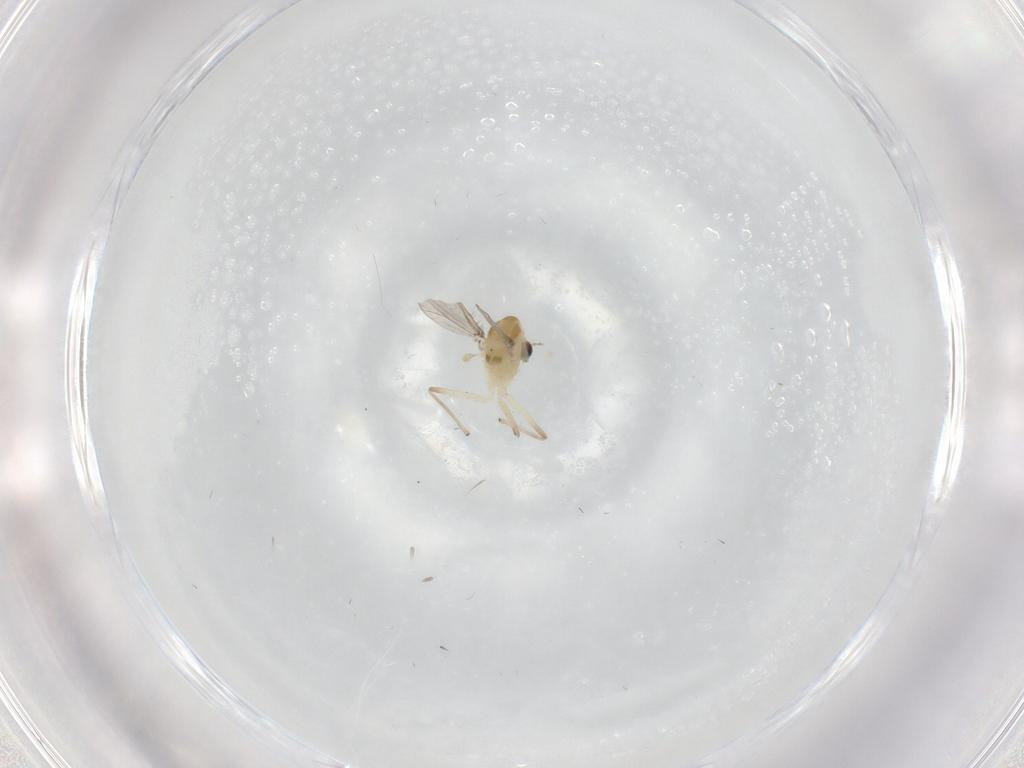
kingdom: Animalia
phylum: Arthropoda
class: Insecta
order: Diptera
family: Chironomidae
